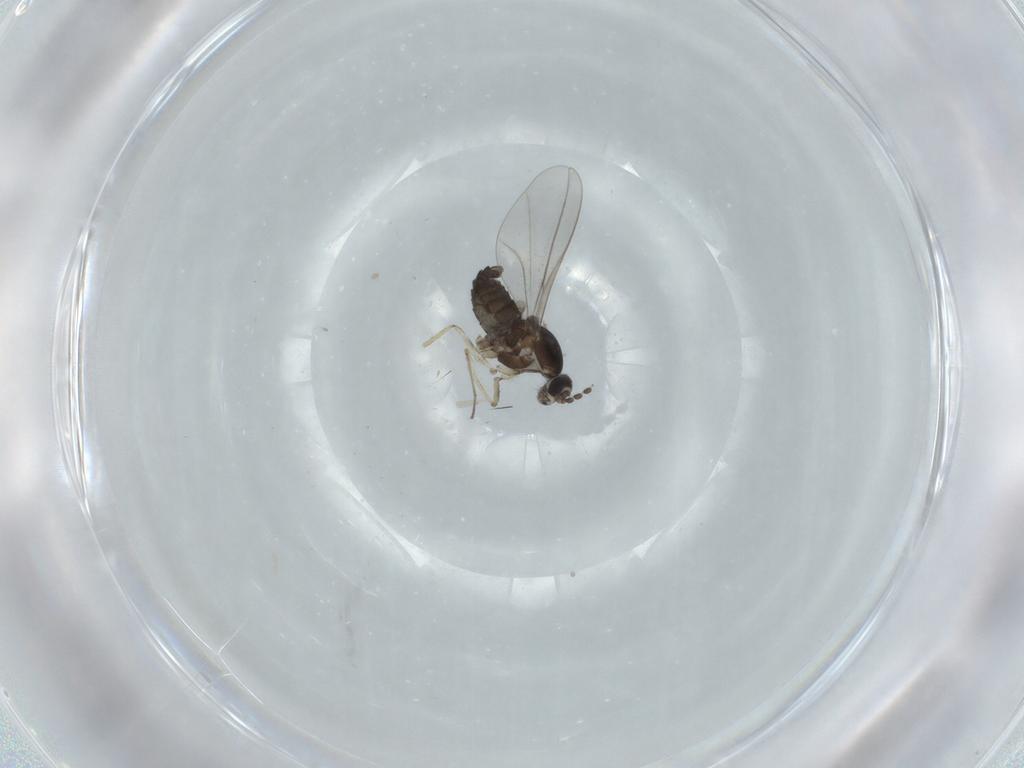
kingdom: Animalia
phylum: Arthropoda
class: Insecta
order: Diptera
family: Cecidomyiidae
